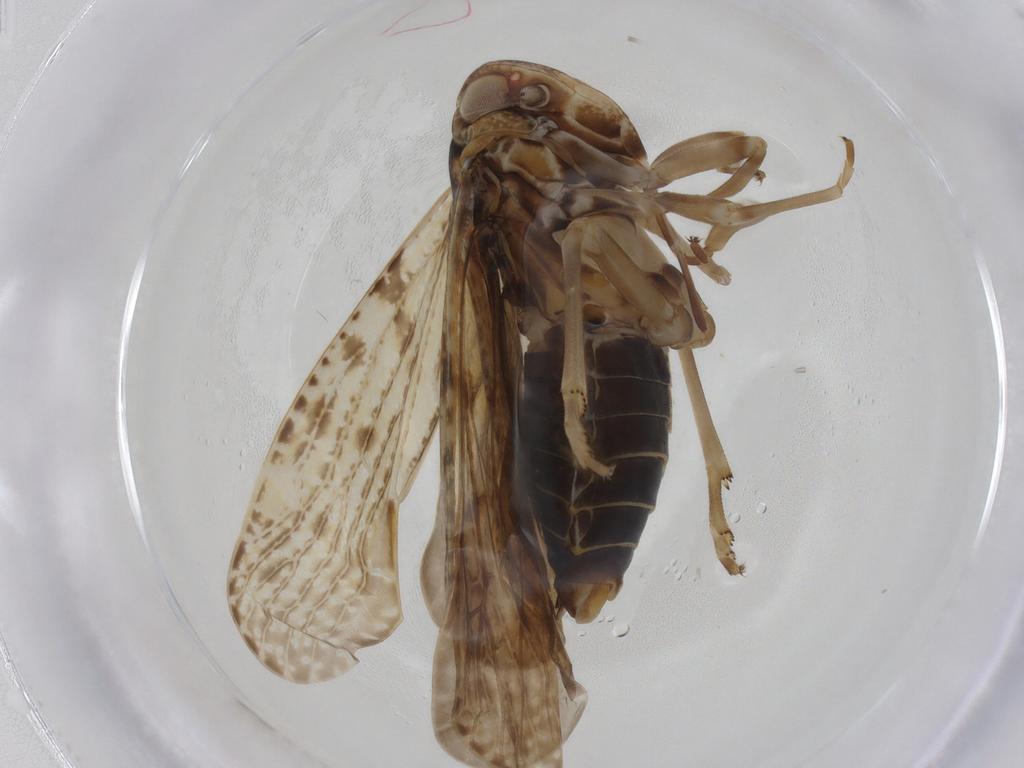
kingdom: Animalia
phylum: Arthropoda
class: Insecta
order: Hemiptera
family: Achilidae
